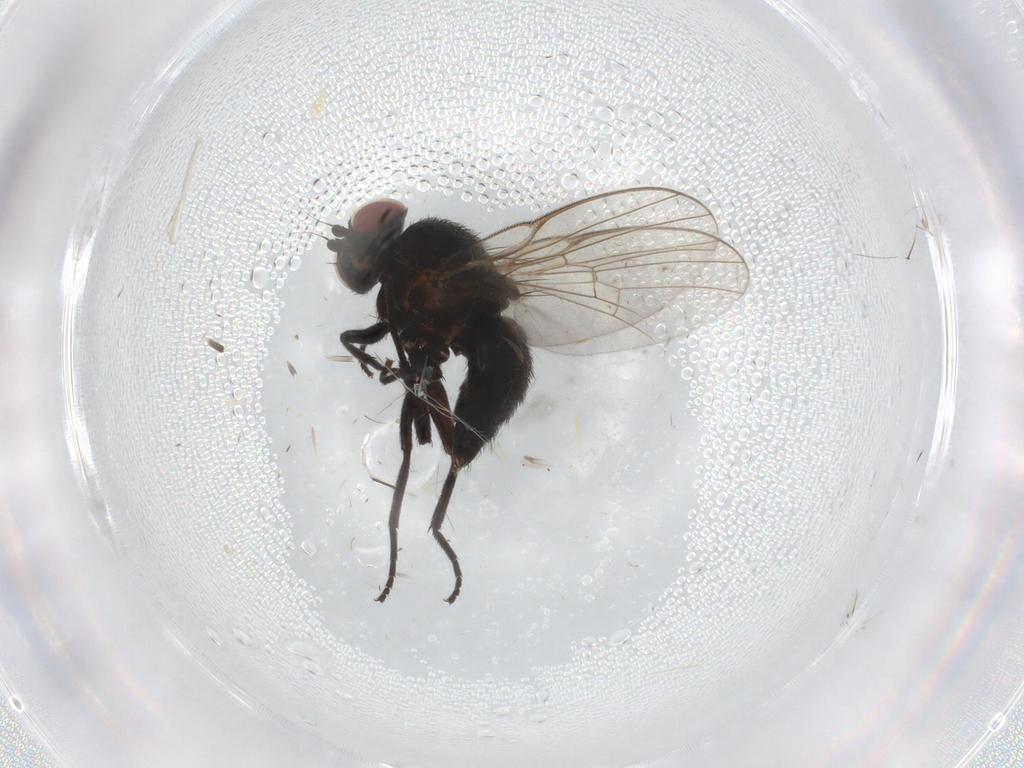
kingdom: Animalia
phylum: Arthropoda
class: Insecta
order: Diptera
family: Agromyzidae
